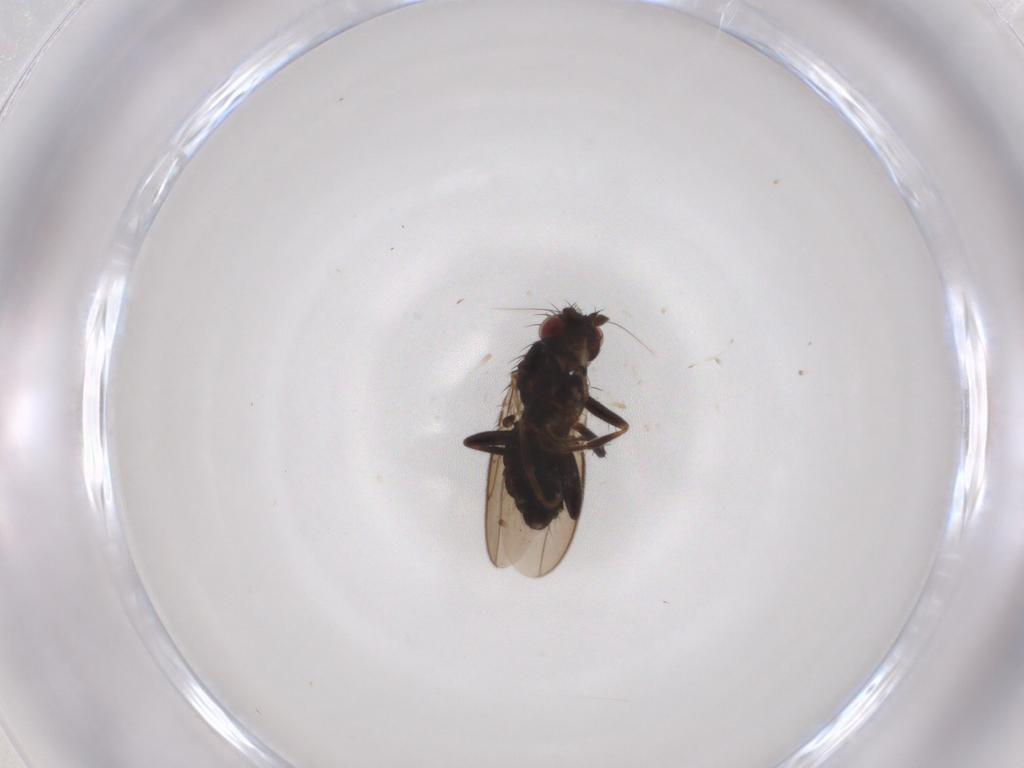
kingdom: Animalia
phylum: Arthropoda
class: Insecta
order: Diptera
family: Sphaeroceridae
